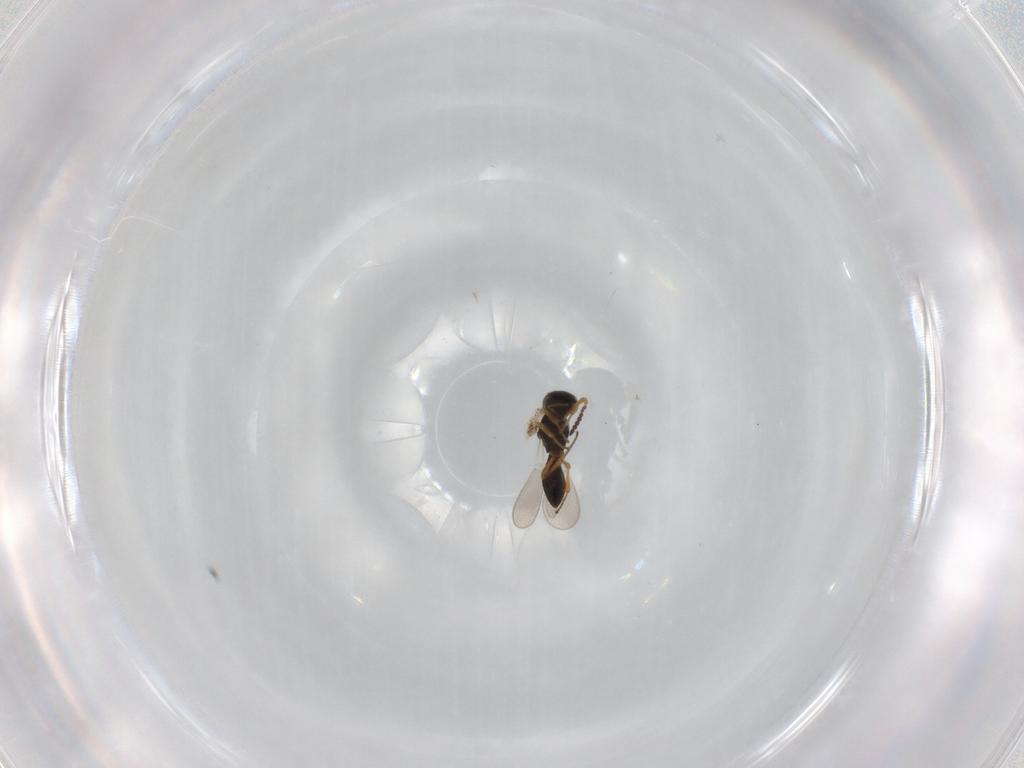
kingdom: Animalia
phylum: Arthropoda
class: Insecta
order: Hymenoptera
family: Platygastridae
